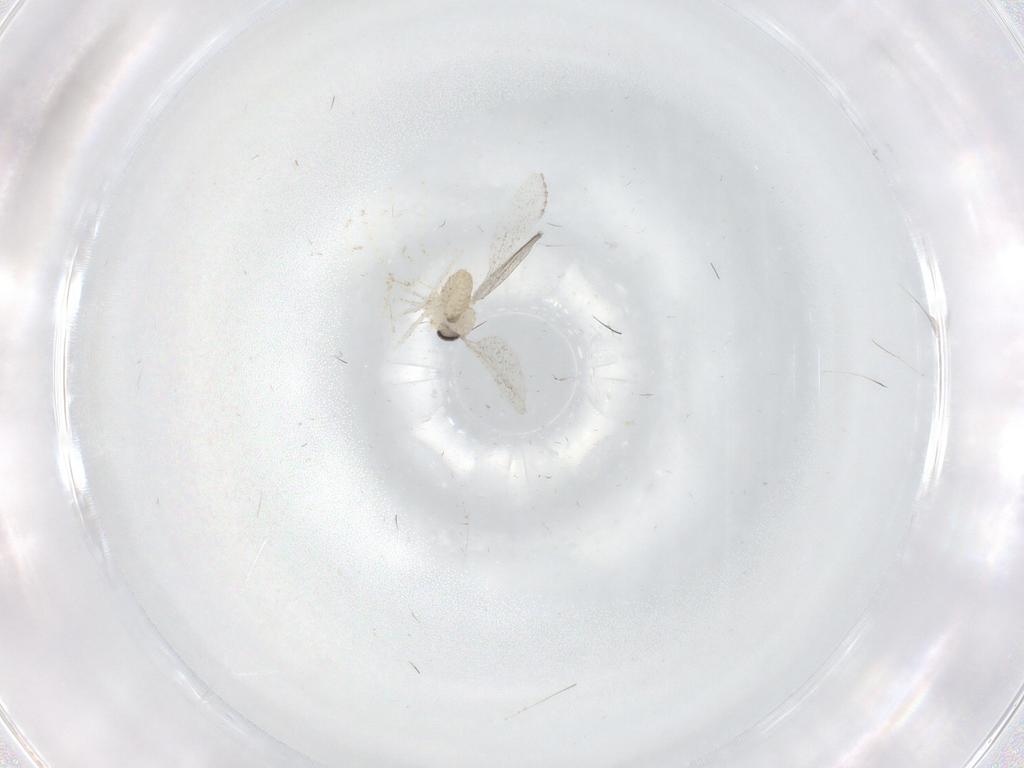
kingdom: Animalia
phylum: Arthropoda
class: Insecta
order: Diptera
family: Cecidomyiidae
